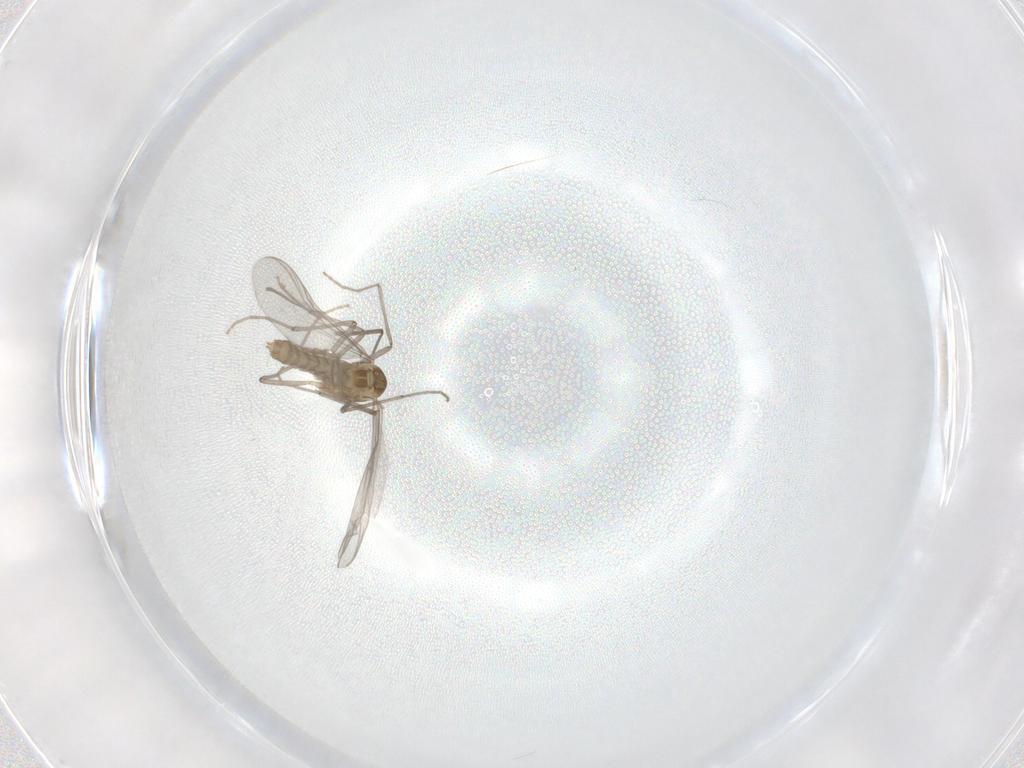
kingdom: Animalia
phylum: Arthropoda
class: Insecta
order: Diptera
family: Chironomidae
